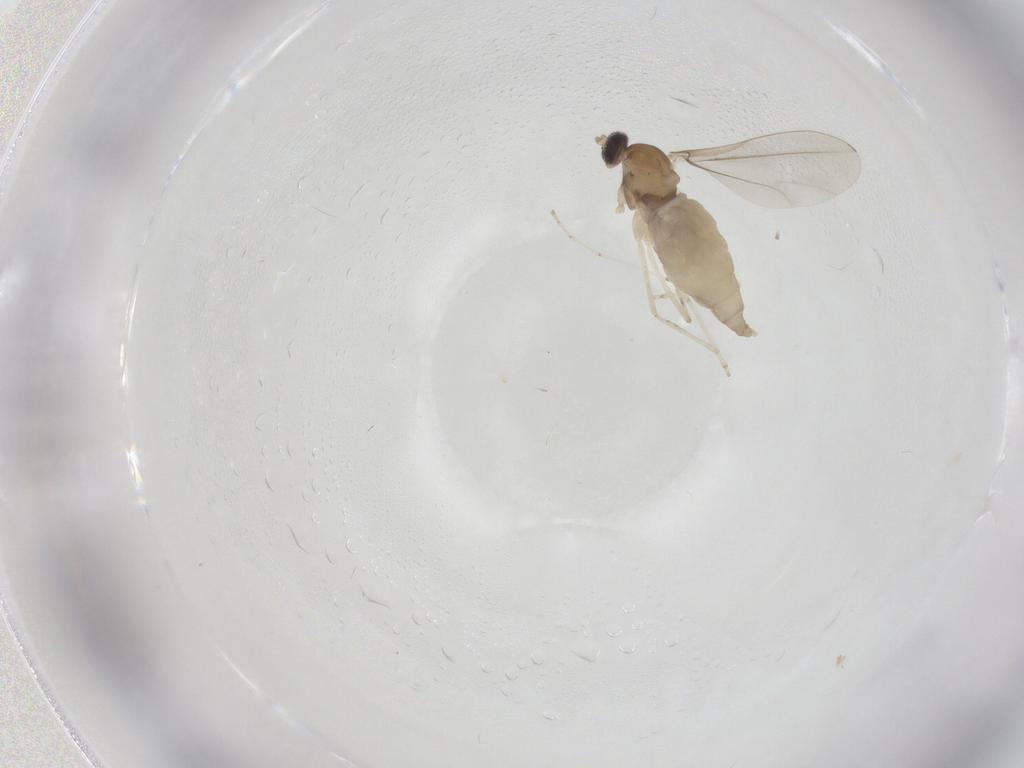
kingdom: Animalia
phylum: Arthropoda
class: Insecta
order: Diptera
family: Cecidomyiidae
